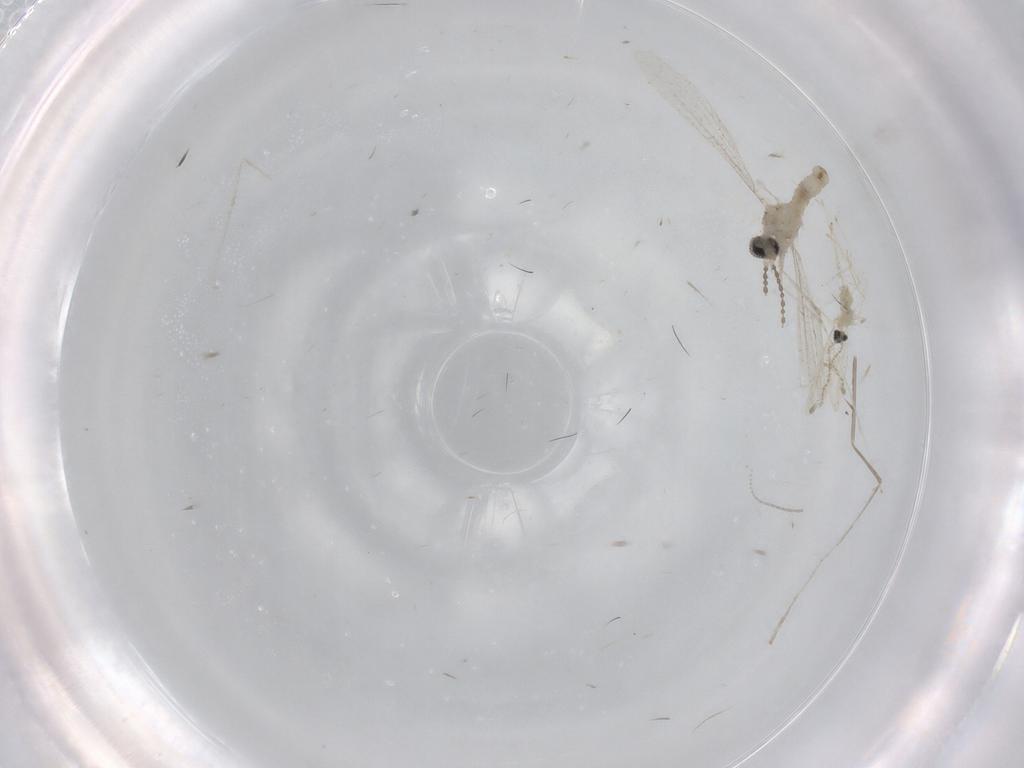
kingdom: Animalia
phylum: Arthropoda
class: Insecta
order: Diptera
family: Cecidomyiidae
